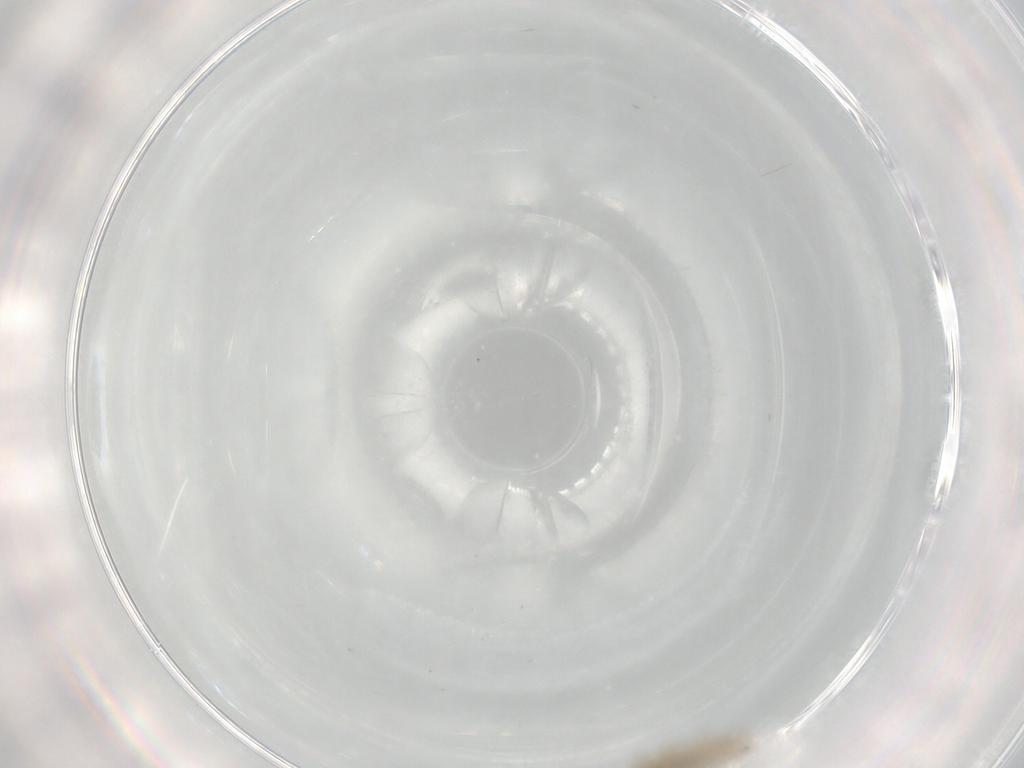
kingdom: Animalia
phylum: Arthropoda
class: Insecta
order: Diptera
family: Cecidomyiidae
